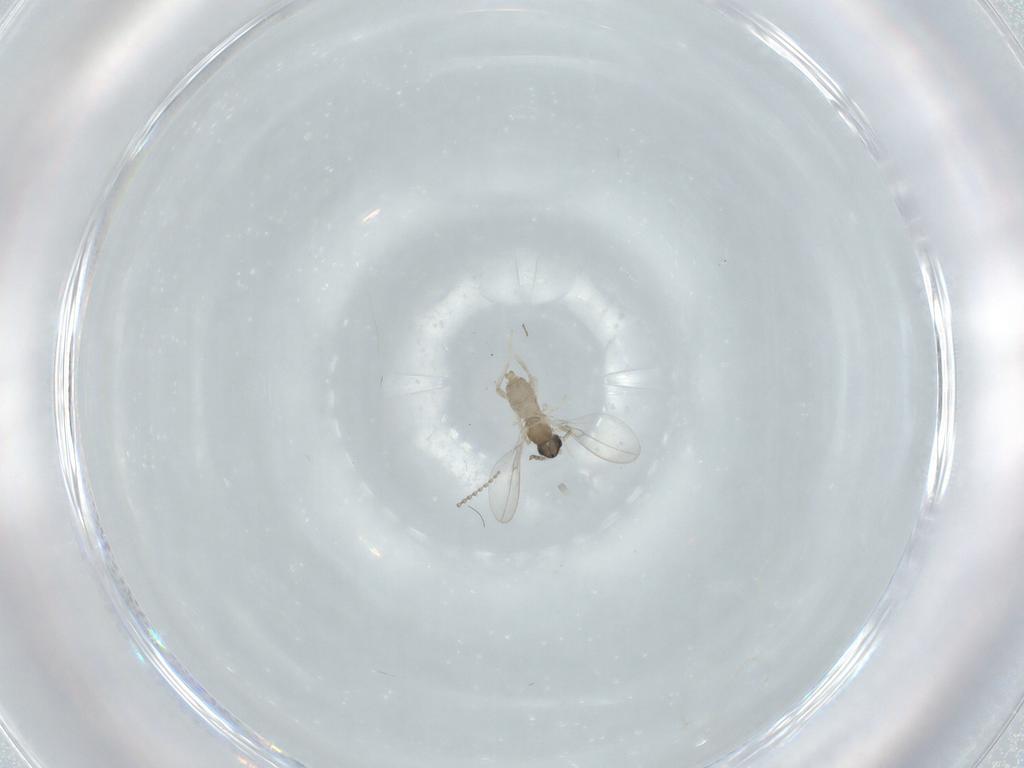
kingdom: Animalia
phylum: Arthropoda
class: Insecta
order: Diptera
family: Cecidomyiidae
